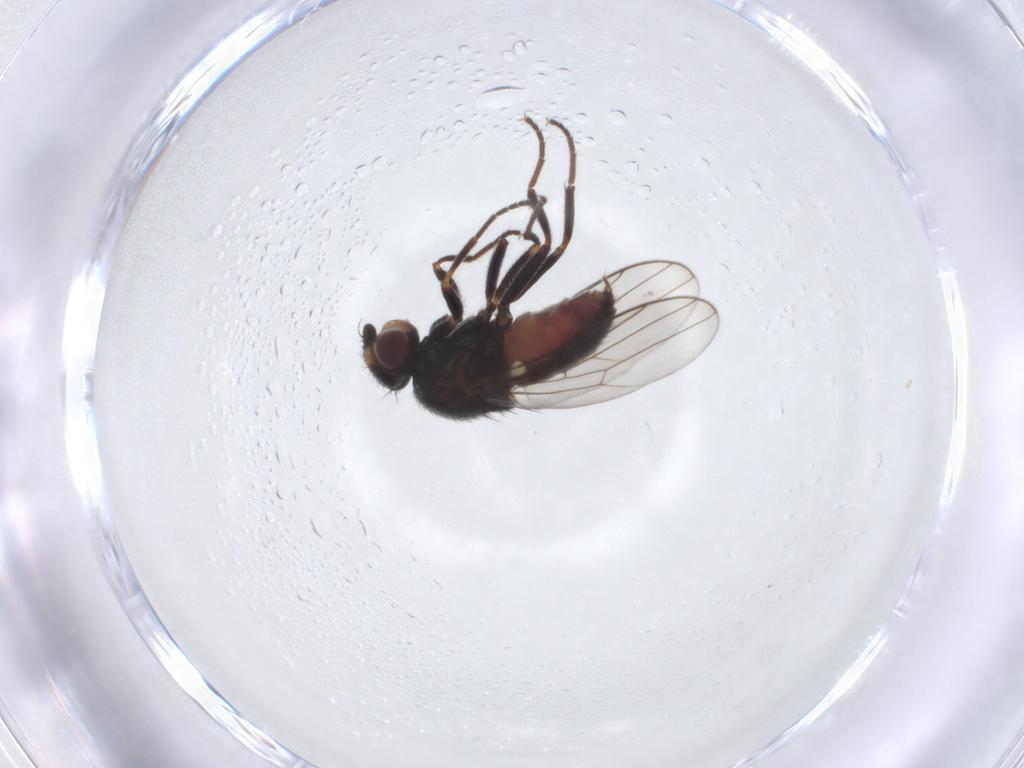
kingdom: Animalia
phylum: Arthropoda
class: Insecta
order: Diptera
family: Chloropidae
